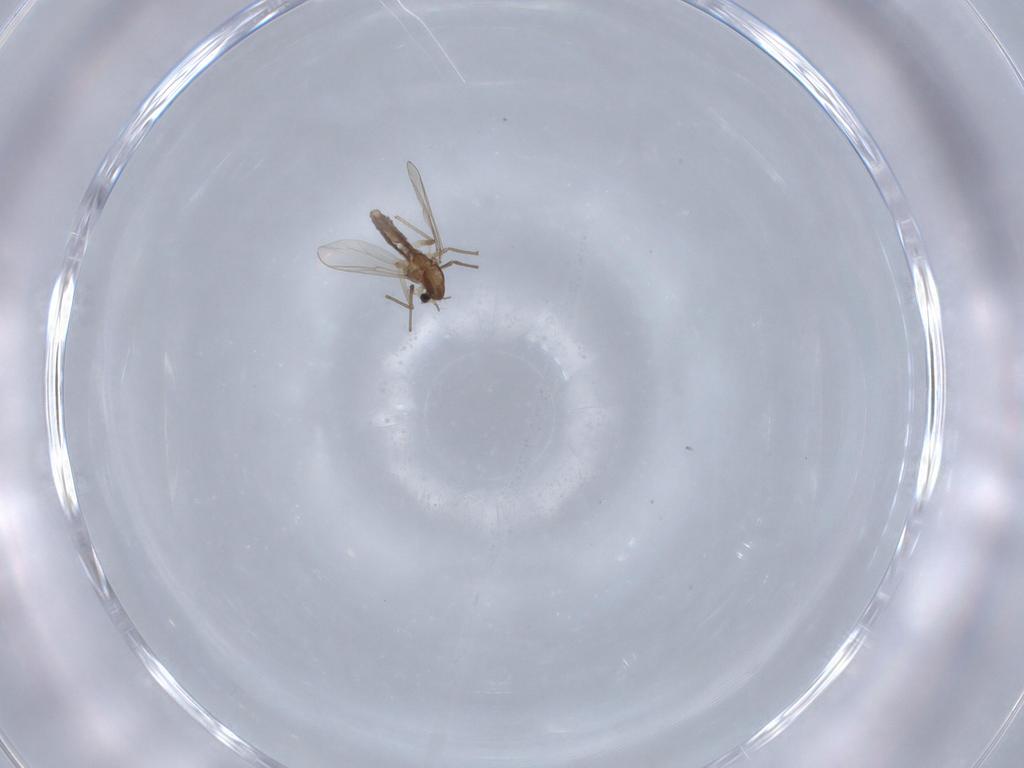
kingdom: Animalia
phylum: Arthropoda
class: Insecta
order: Diptera
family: Chironomidae
